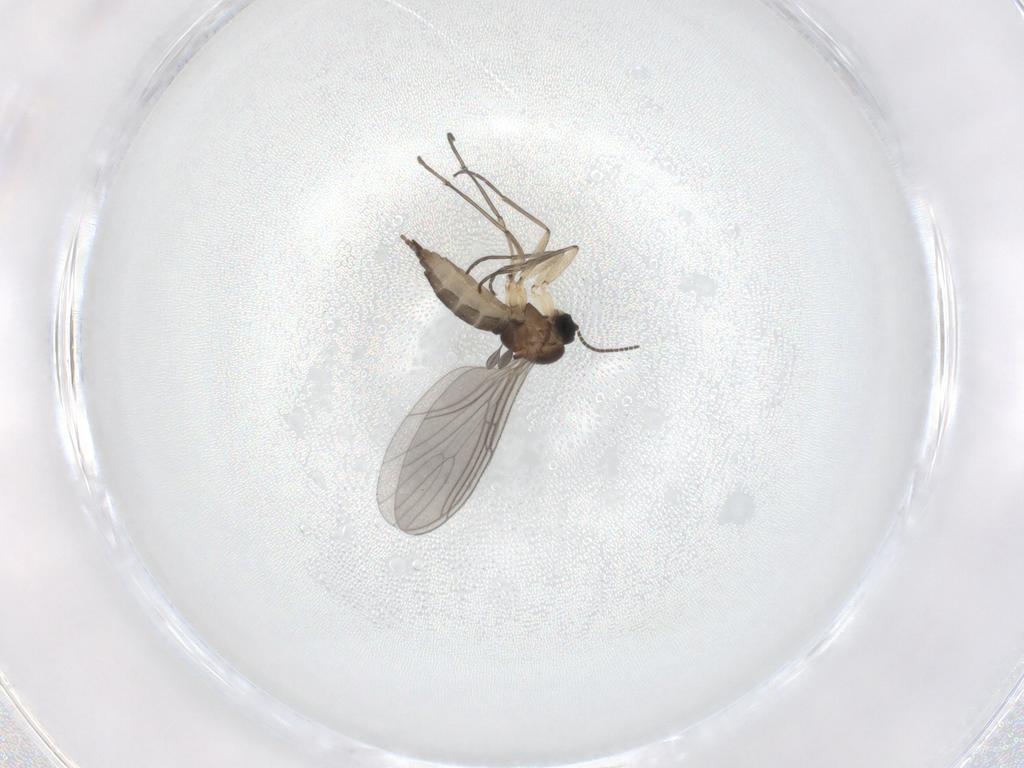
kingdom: Animalia
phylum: Arthropoda
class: Insecta
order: Diptera
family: Sciaridae
